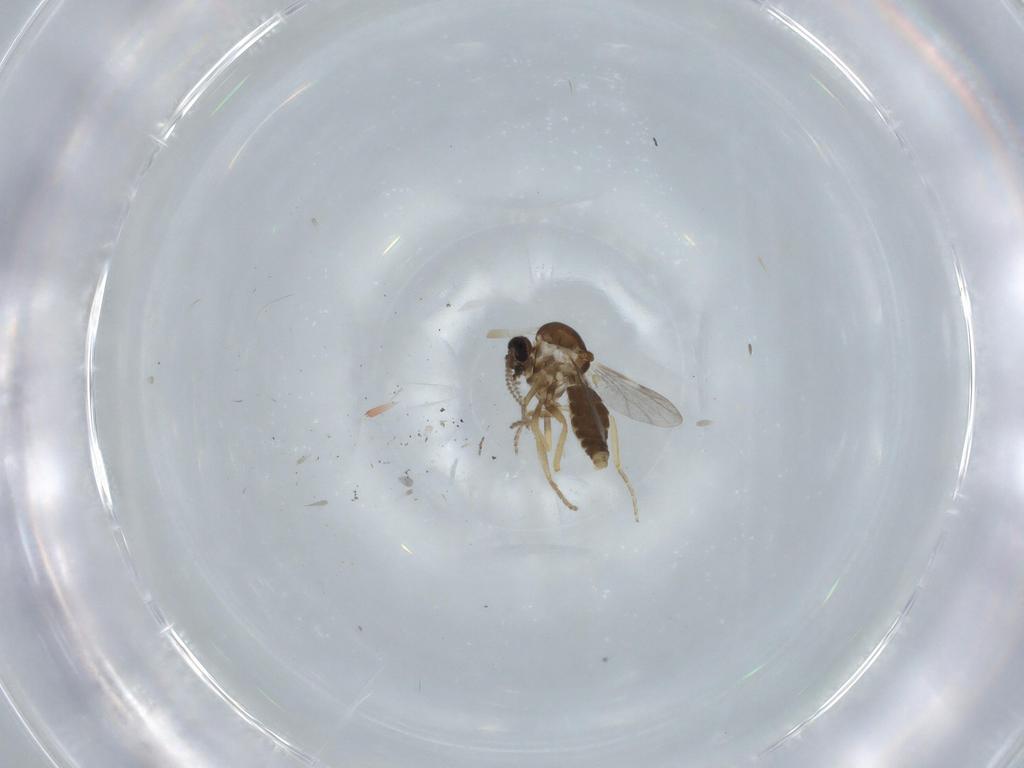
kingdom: Animalia
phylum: Arthropoda
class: Insecta
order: Diptera
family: Ceratopogonidae
